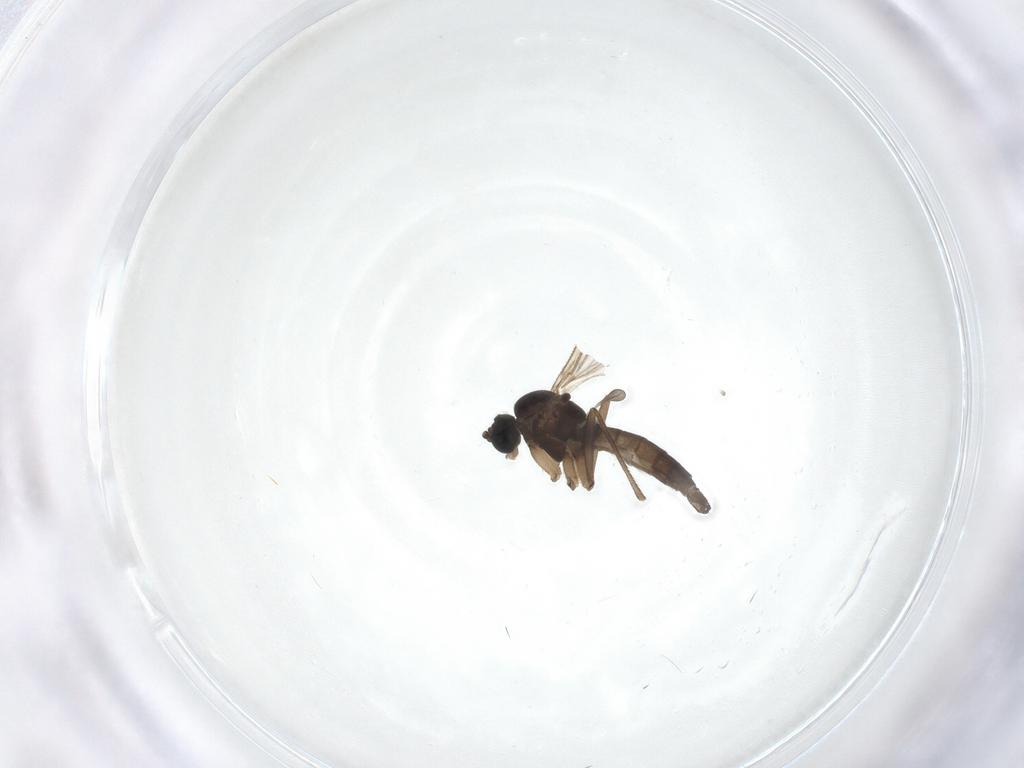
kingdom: Animalia
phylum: Arthropoda
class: Insecta
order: Diptera
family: Sciaridae
